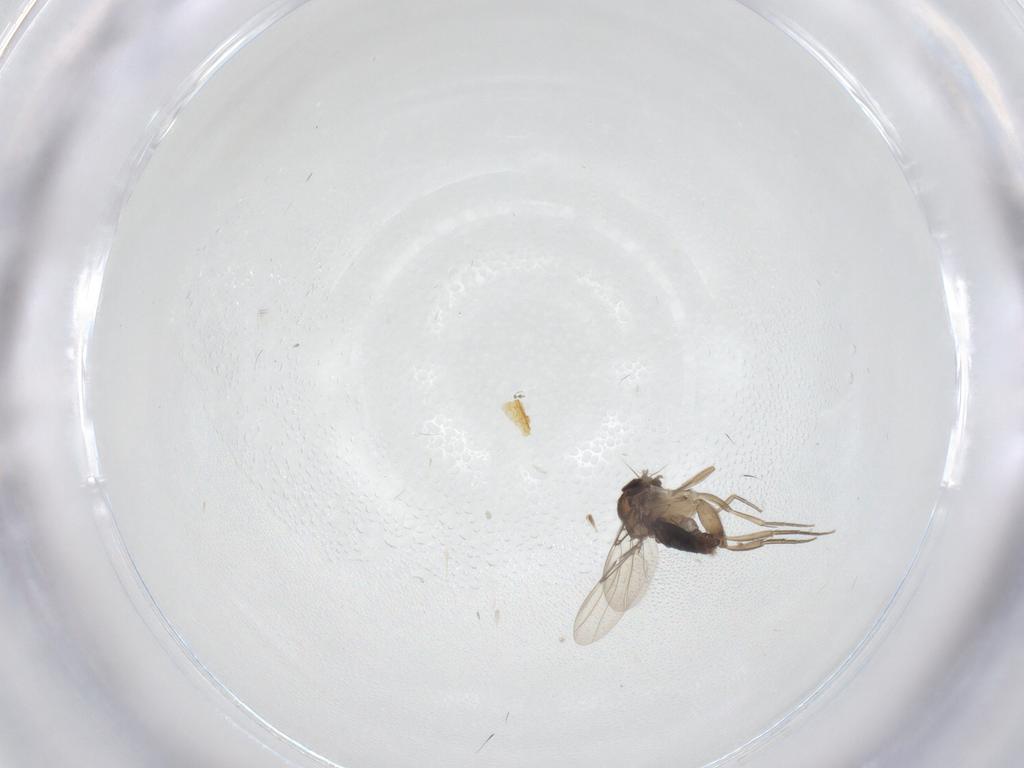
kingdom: Animalia
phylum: Arthropoda
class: Insecta
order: Diptera
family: Phoridae
